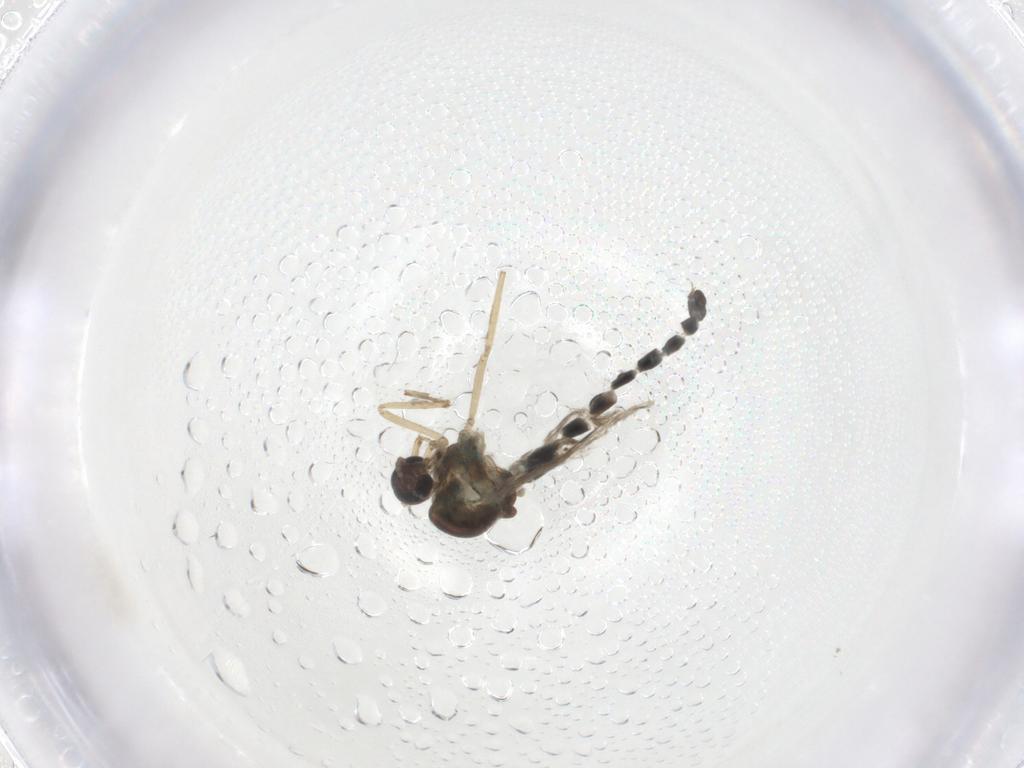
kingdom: Animalia
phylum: Arthropoda
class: Insecta
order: Diptera
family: Ceratopogonidae
